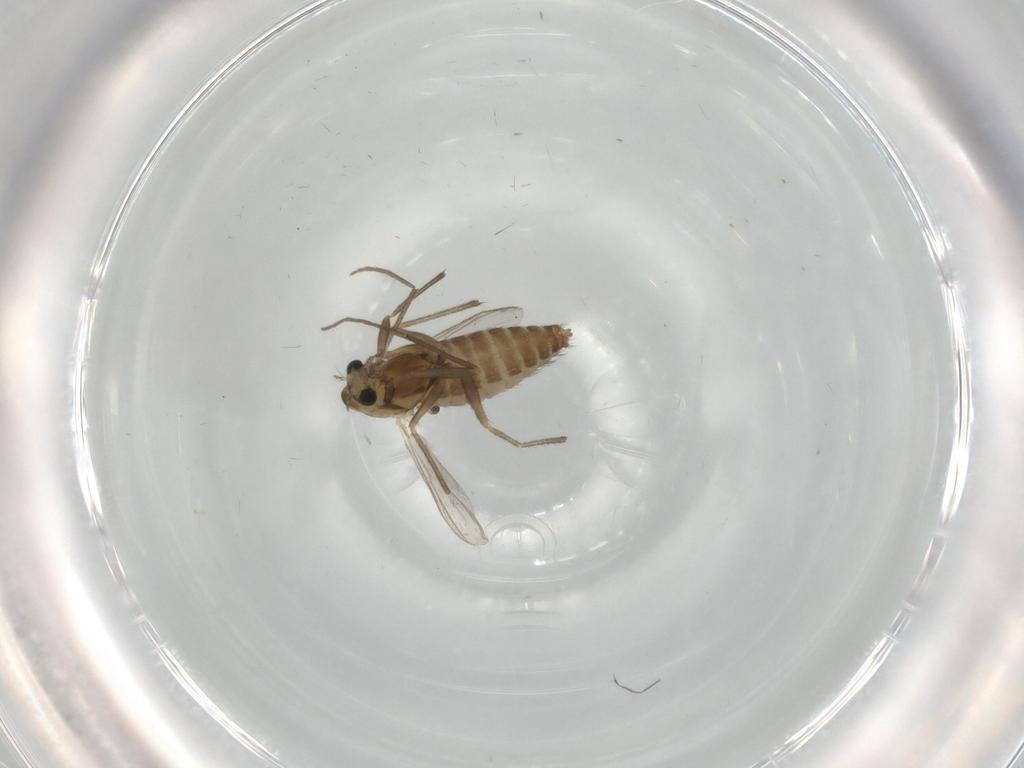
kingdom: Animalia
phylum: Arthropoda
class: Insecta
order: Diptera
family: Chironomidae
